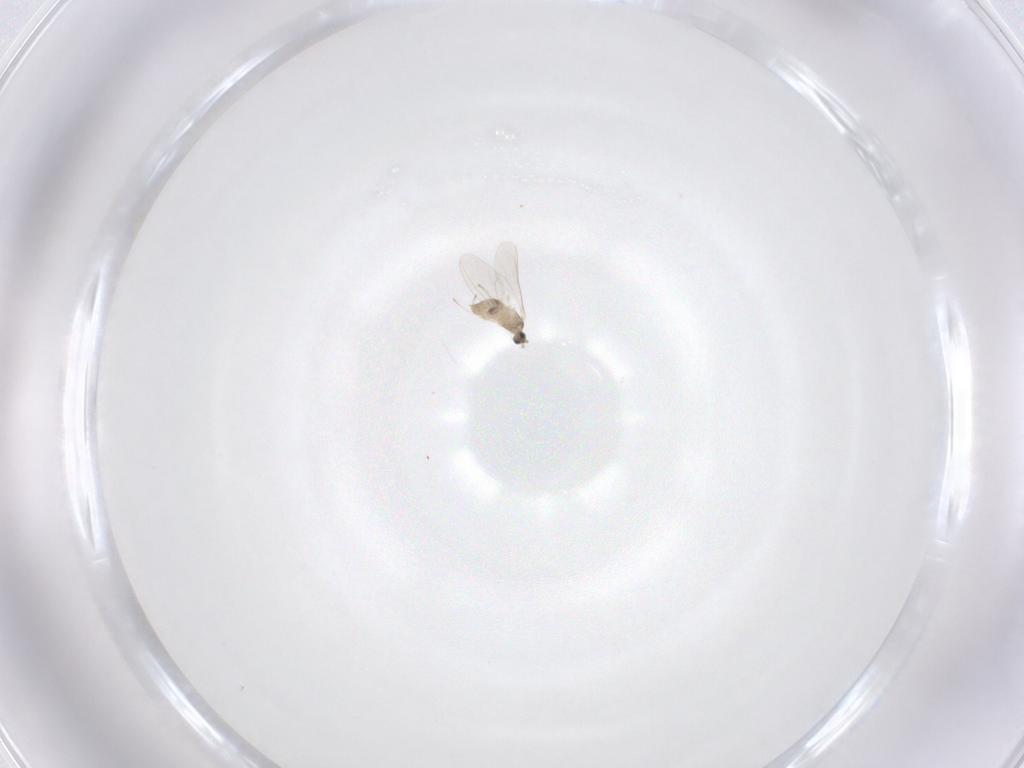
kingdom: Animalia
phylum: Arthropoda
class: Insecta
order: Diptera
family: Cecidomyiidae
